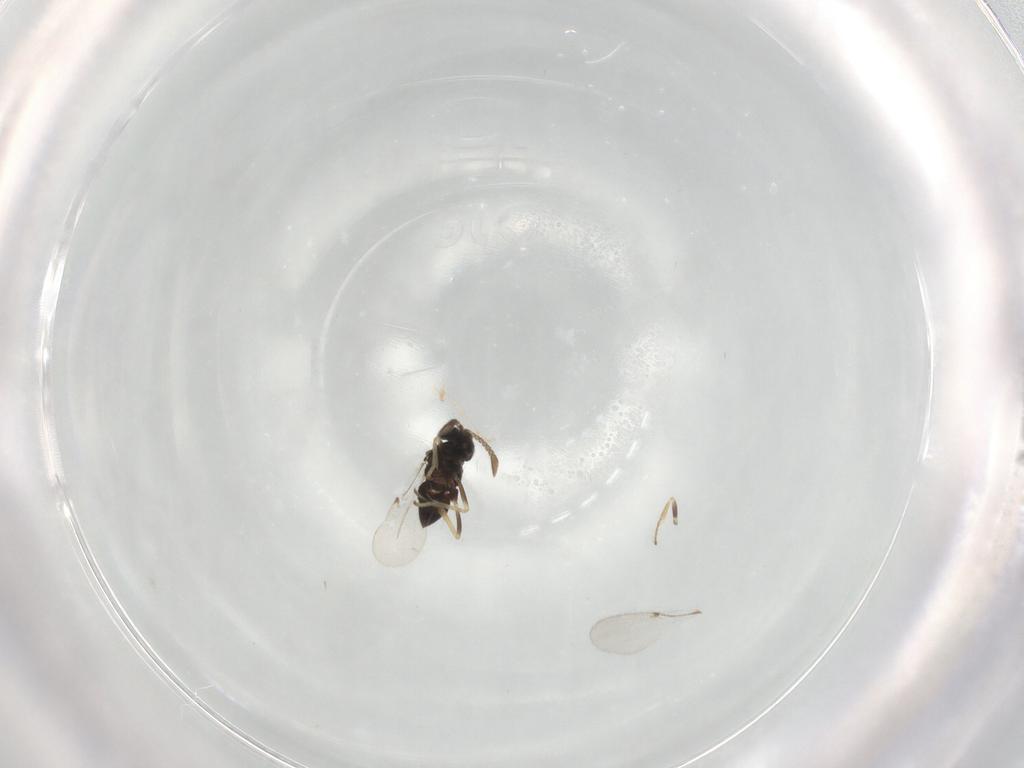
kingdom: Animalia
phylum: Arthropoda
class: Insecta
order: Hymenoptera
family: Encyrtidae
